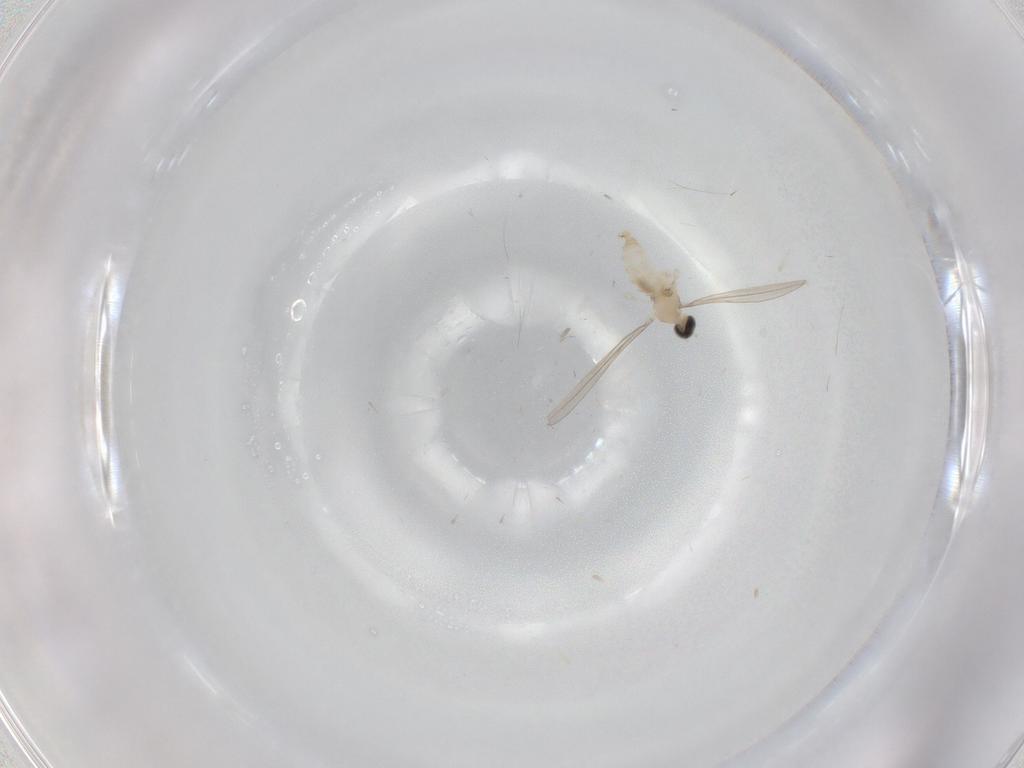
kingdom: Animalia
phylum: Arthropoda
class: Insecta
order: Diptera
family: Cecidomyiidae
